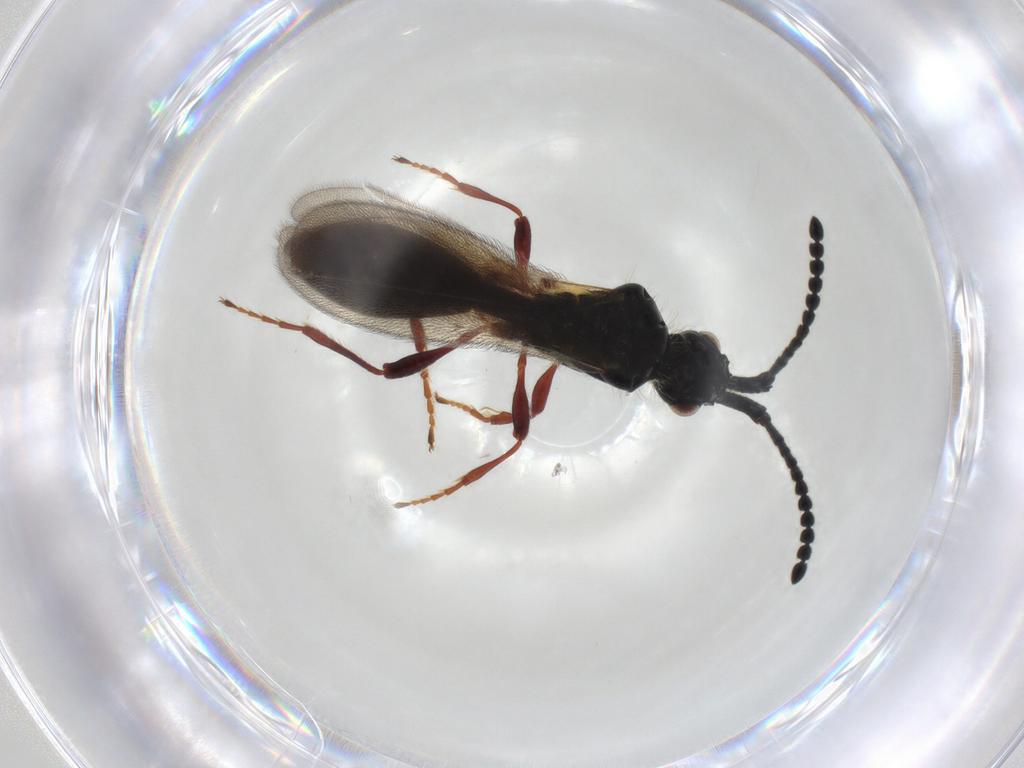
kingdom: Animalia
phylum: Arthropoda
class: Insecta
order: Hymenoptera
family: Diapriidae
